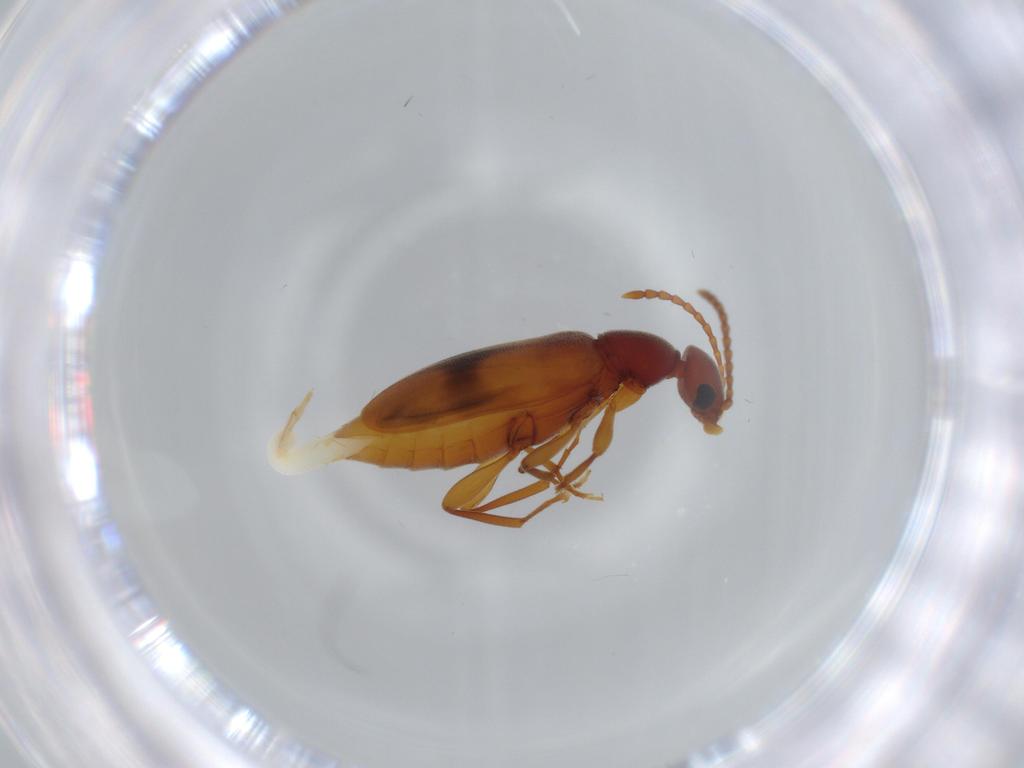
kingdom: Animalia
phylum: Arthropoda
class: Insecta
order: Coleoptera
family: Anthicidae
